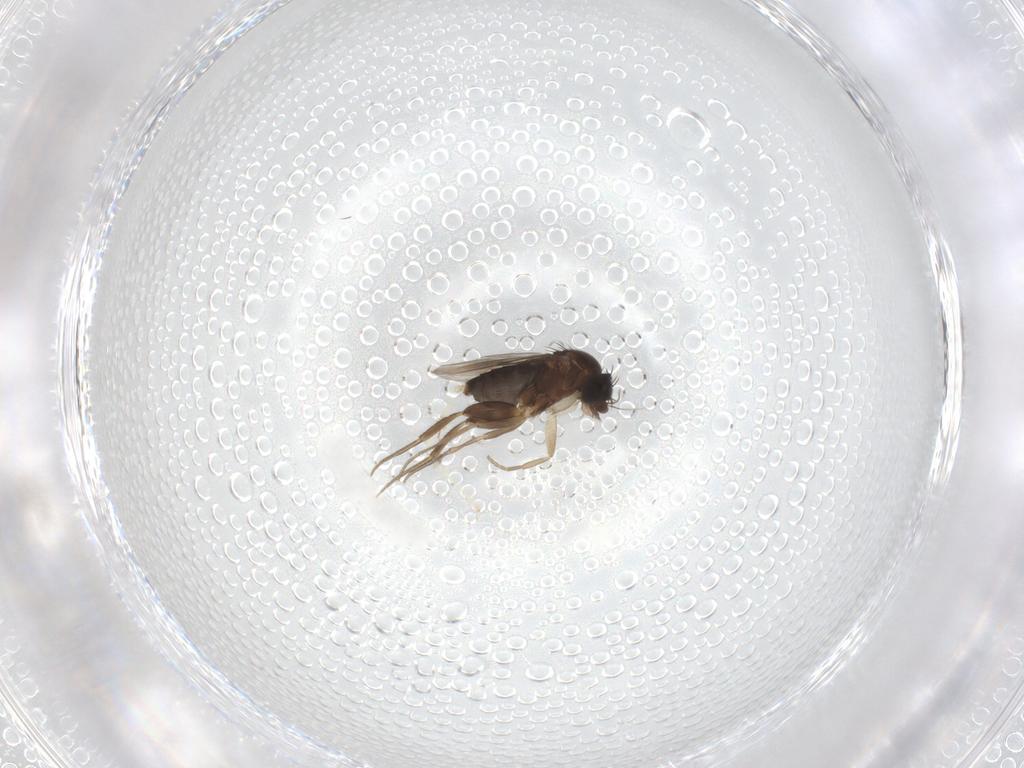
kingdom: Animalia
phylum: Arthropoda
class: Insecta
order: Diptera
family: Phoridae
